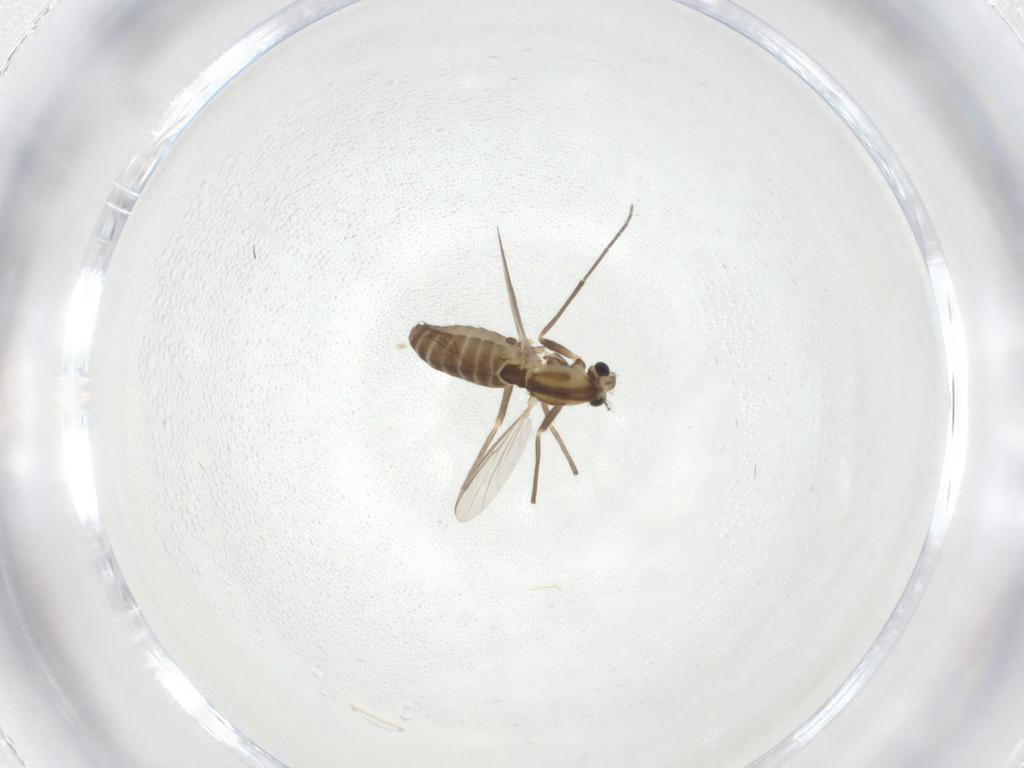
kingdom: Animalia
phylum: Arthropoda
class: Insecta
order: Diptera
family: Chironomidae
